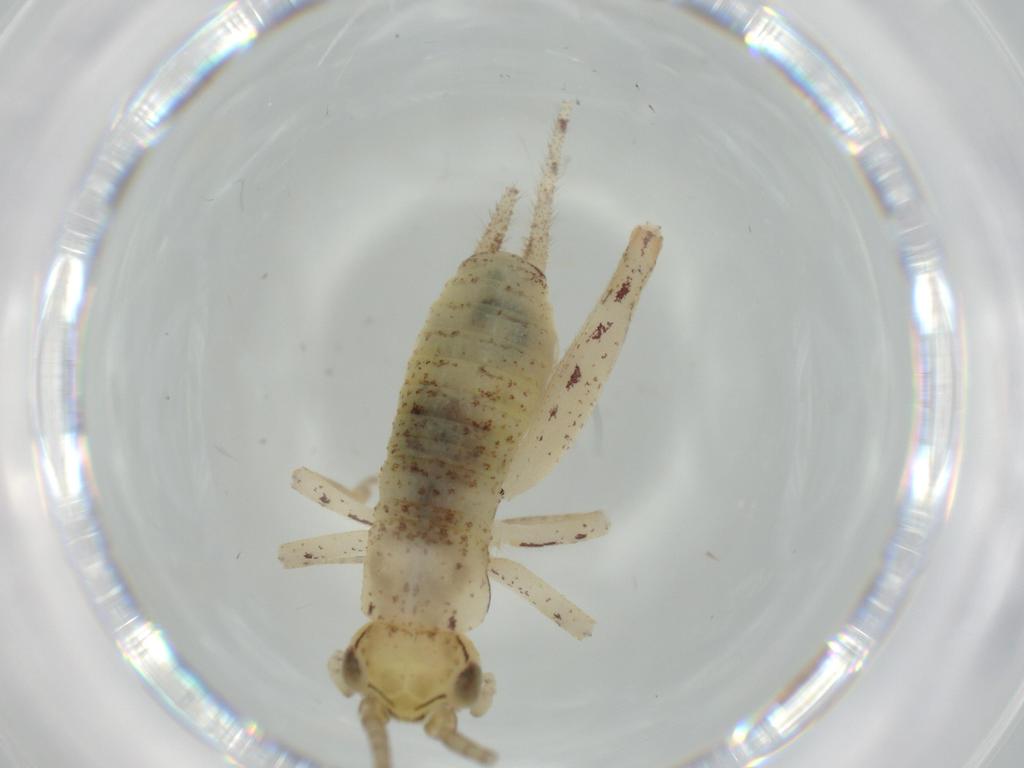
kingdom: Animalia
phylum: Arthropoda
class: Insecta
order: Orthoptera
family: Gryllidae
